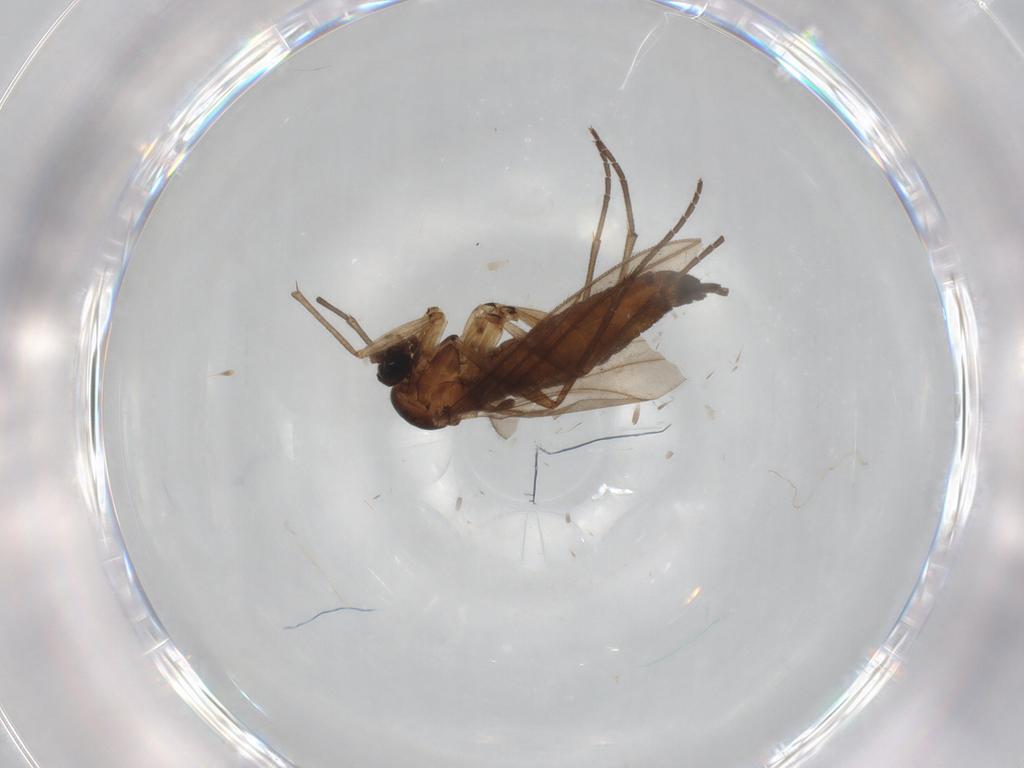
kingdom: Animalia
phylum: Arthropoda
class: Insecta
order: Diptera
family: Sciaridae
